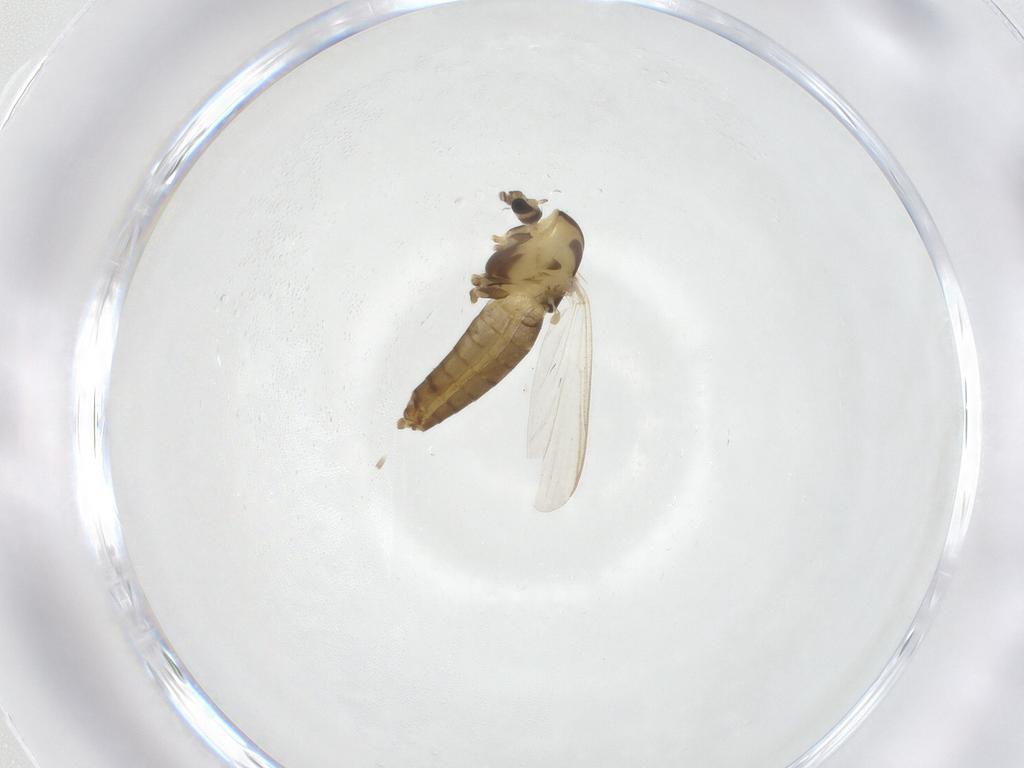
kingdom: Animalia
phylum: Arthropoda
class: Insecta
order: Diptera
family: Chironomidae
